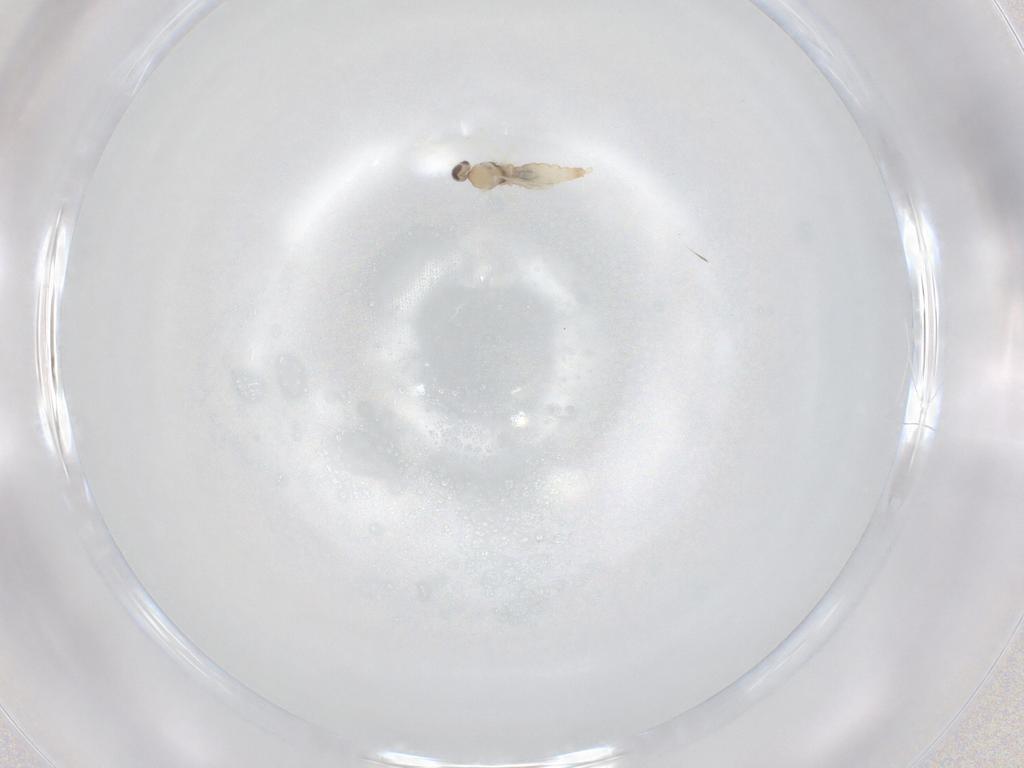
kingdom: Animalia
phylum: Arthropoda
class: Insecta
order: Diptera
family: Cecidomyiidae
